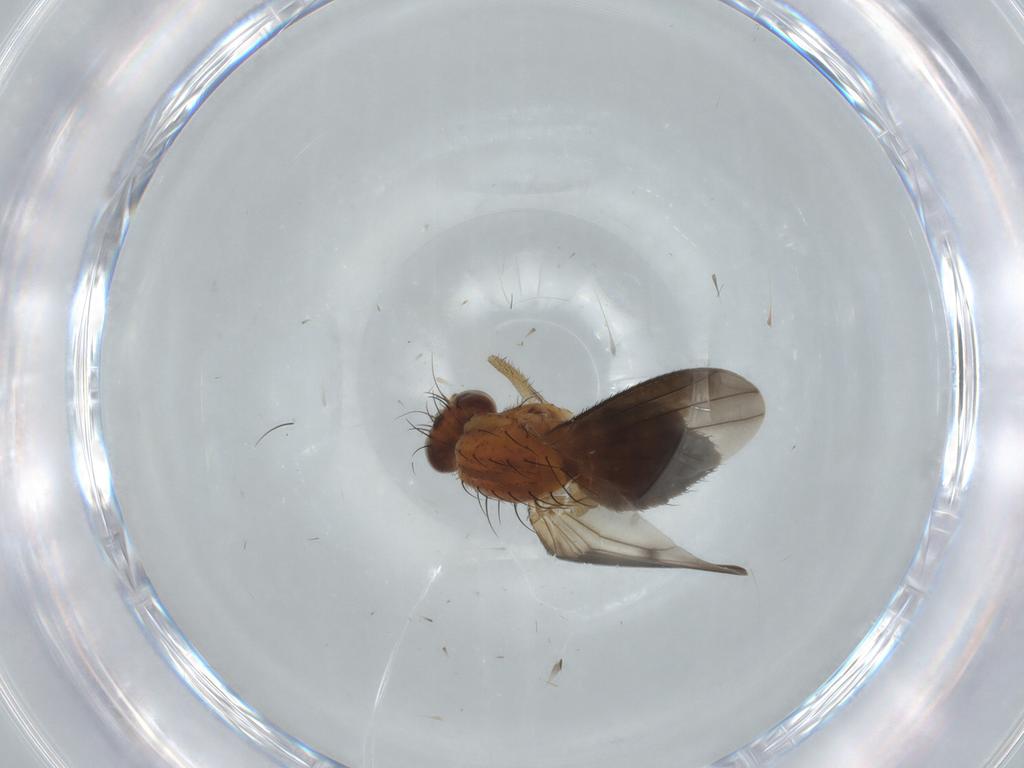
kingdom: Animalia
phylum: Arthropoda
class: Insecta
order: Diptera
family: Heleomyzidae
